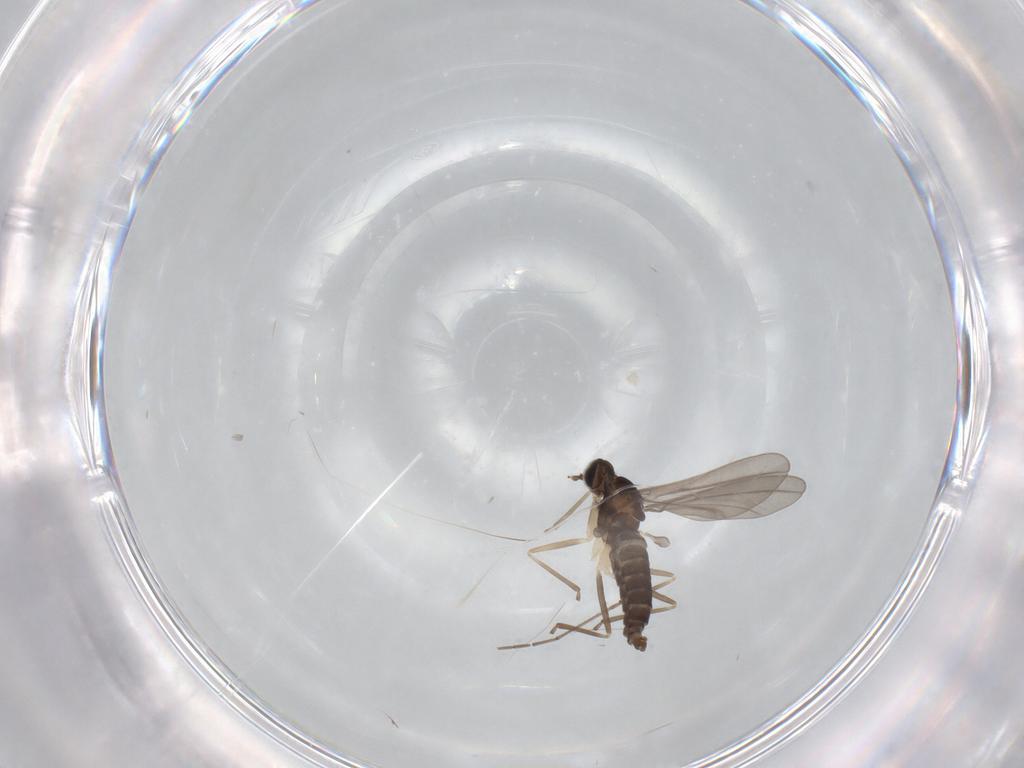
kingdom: Animalia
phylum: Arthropoda
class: Insecta
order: Diptera
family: Cecidomyiidae
